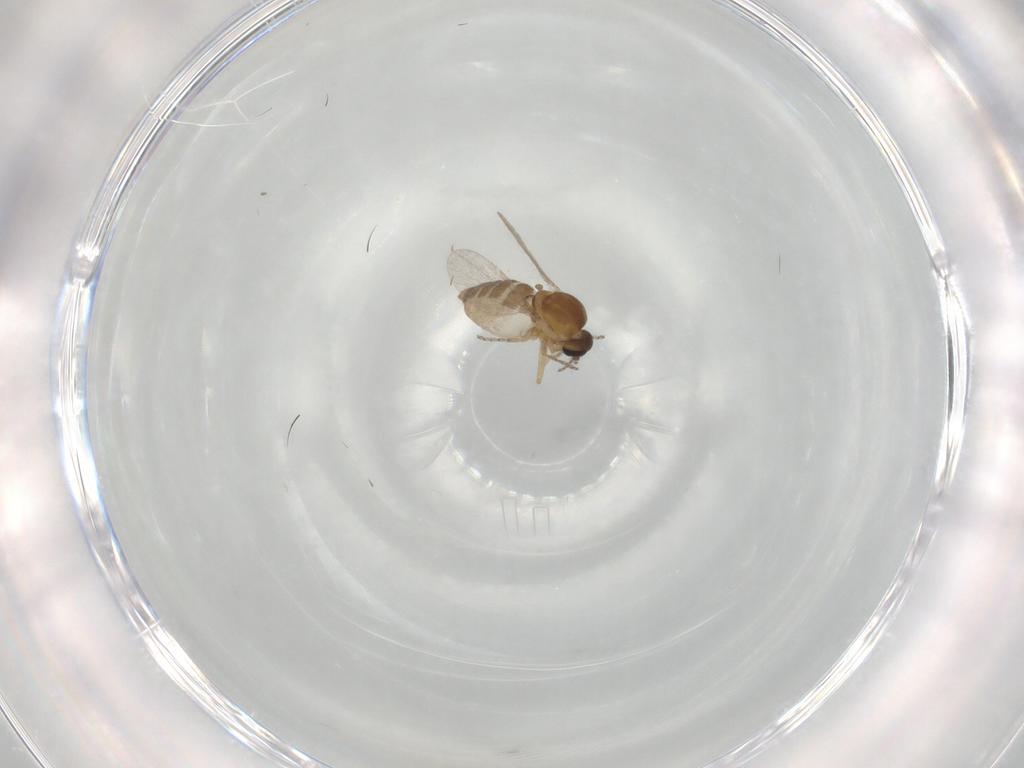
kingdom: Animalia
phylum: Arthropoda
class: Insecta
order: Diptera
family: Ceratopogonidae
